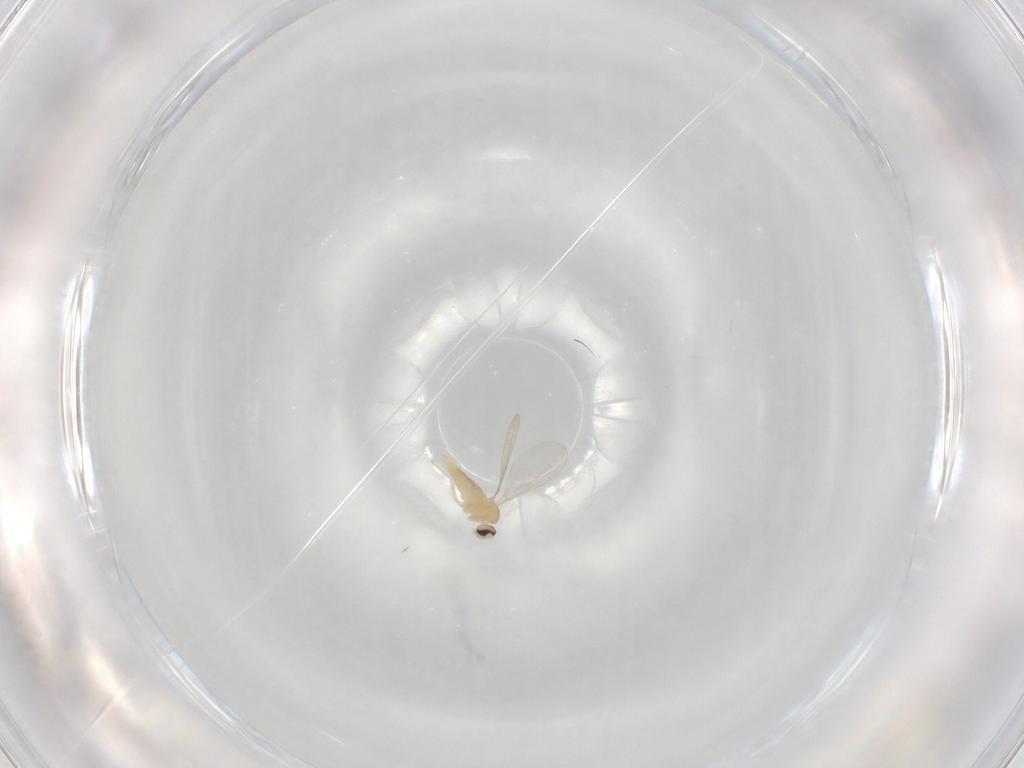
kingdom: Animalia
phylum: Arthropoda
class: Insecta
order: Diptera
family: Cecidomyiidae
